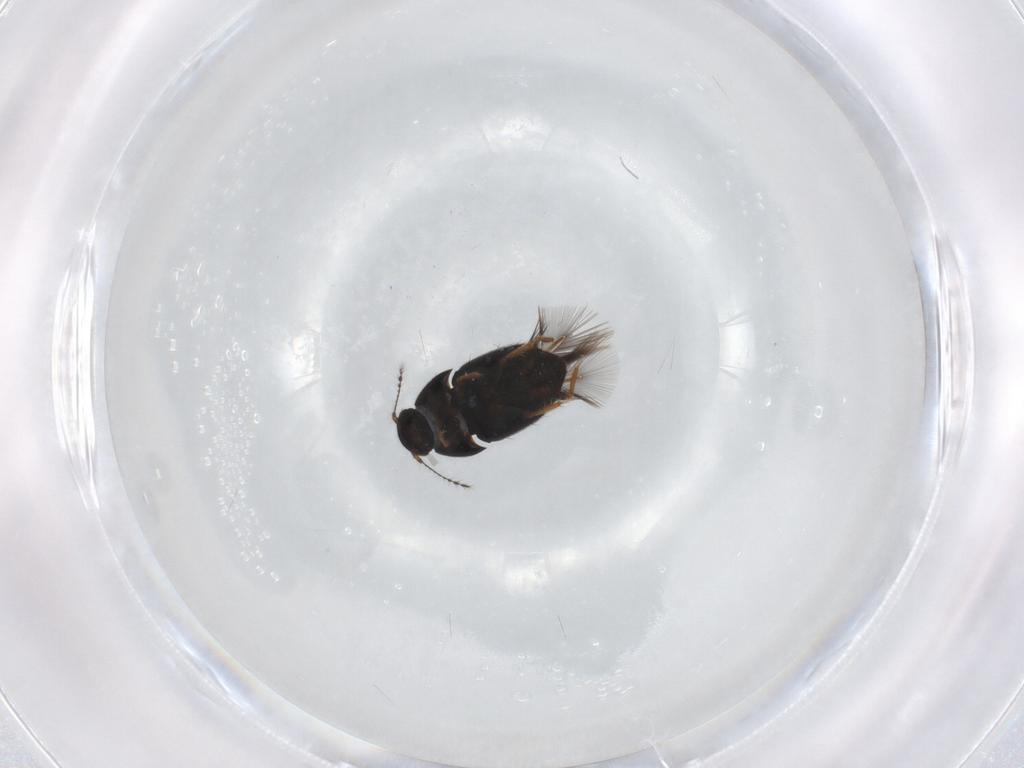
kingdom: Animalia
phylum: Arthropoda
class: Insecta
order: Coleoptera
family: Ptiliidae
